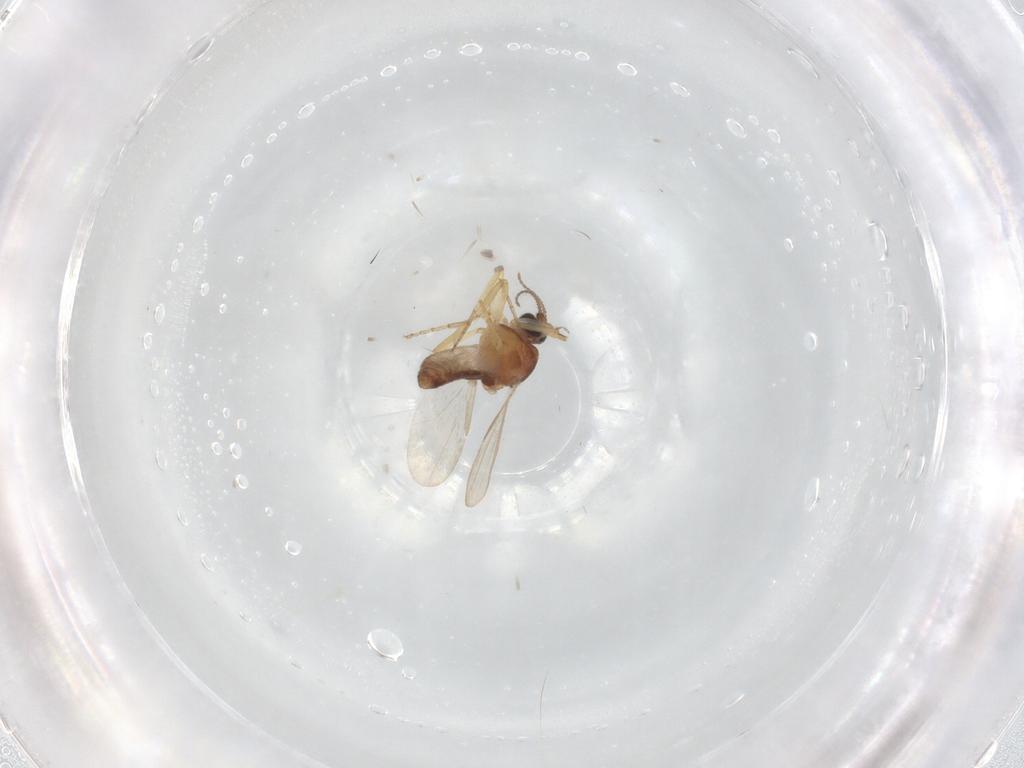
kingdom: Animalia
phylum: Arthropoda
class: Insecta
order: Diptera
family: Ceratopogonidae
